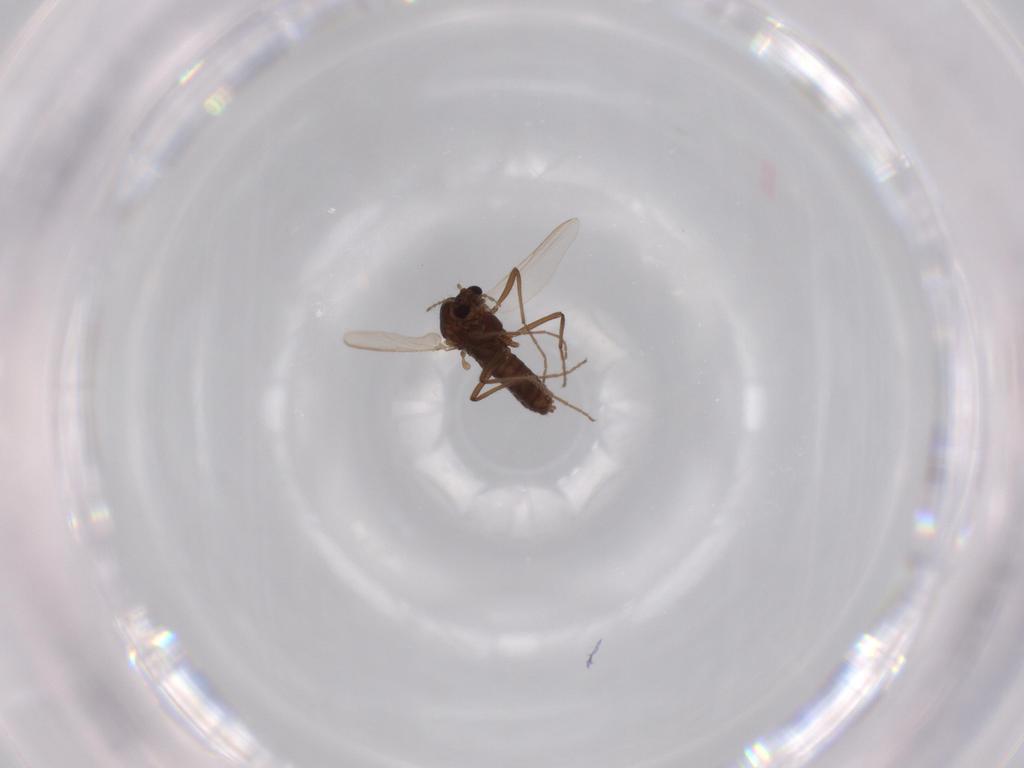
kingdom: Animalia
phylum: Arthropoda
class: Insecta
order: Diptera
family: Chironomidae
